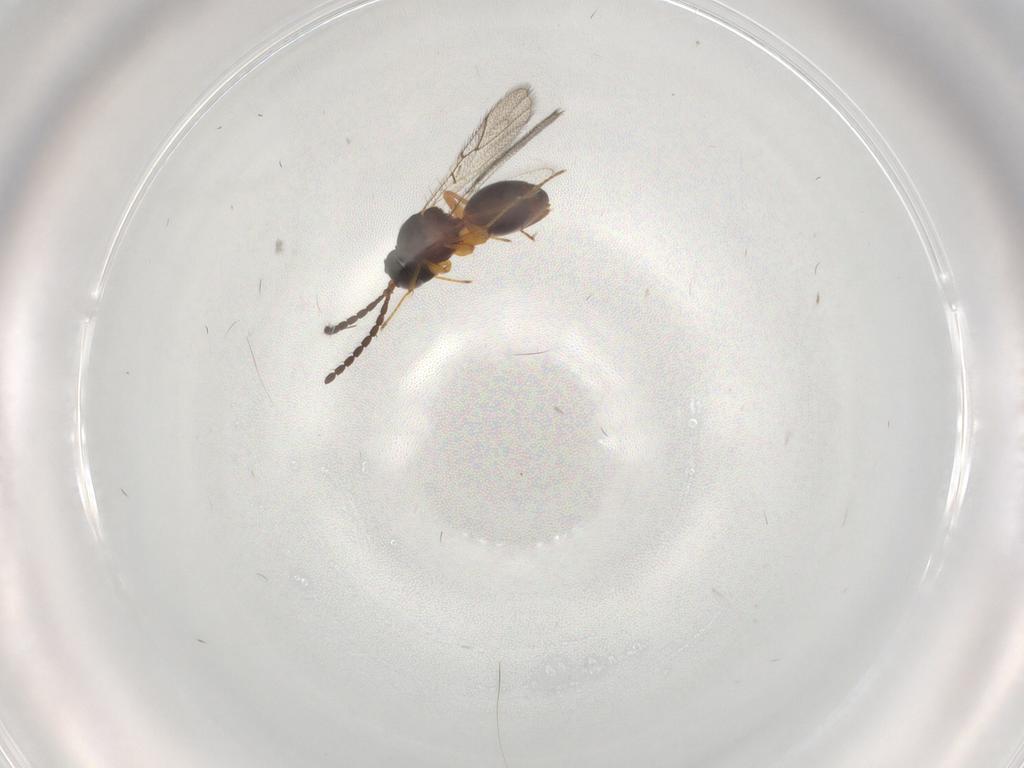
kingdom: Animalia
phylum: Arthropoda
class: Insecta
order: Hymenoptera
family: Figitidae
